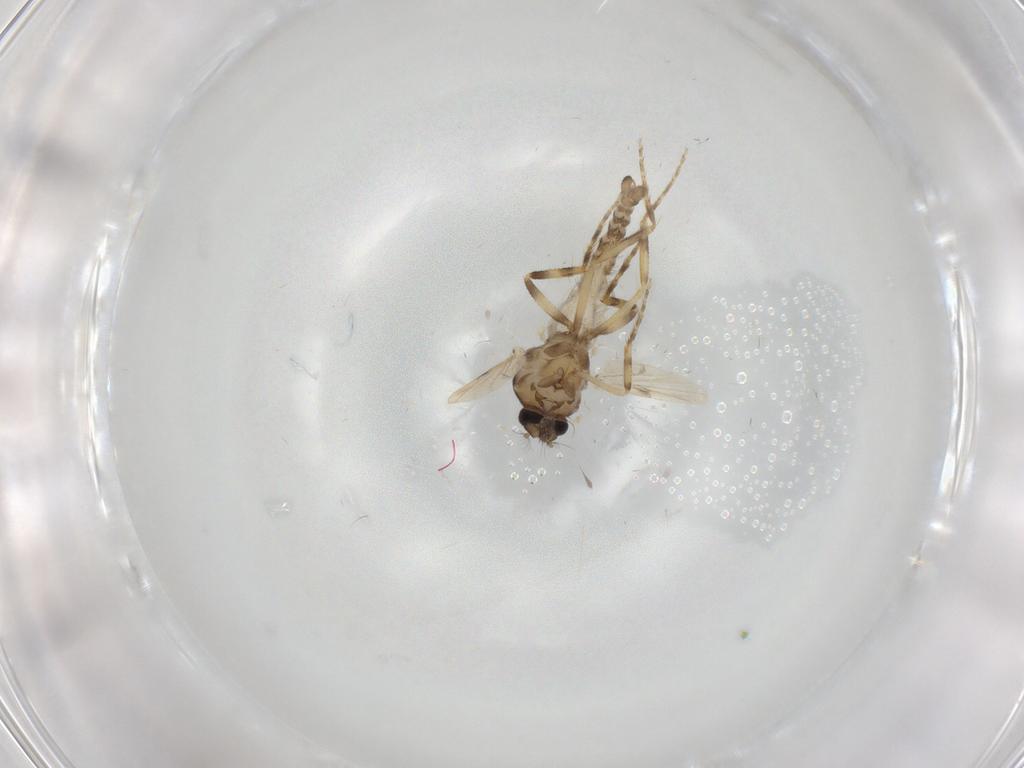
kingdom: Animalia
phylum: Arthropoda
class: Insecta
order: Diptera
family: Ceratopogonidae
